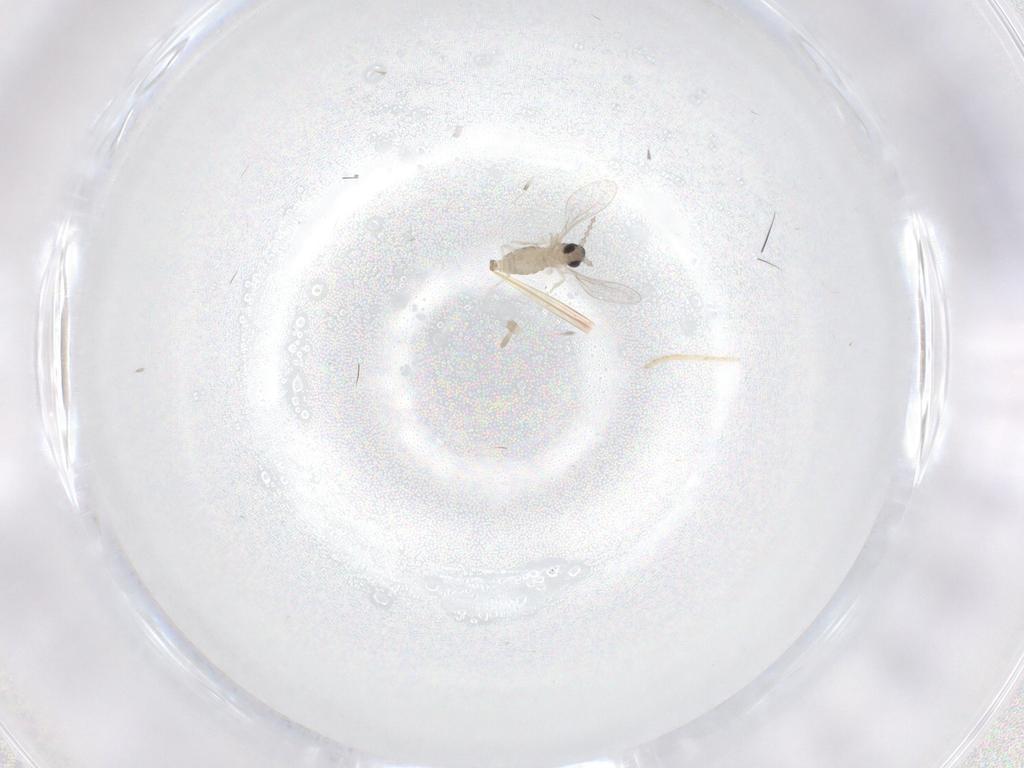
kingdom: Animalia
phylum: Arthropoda
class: Insecta
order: Diptera
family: Cecidomyiidae
